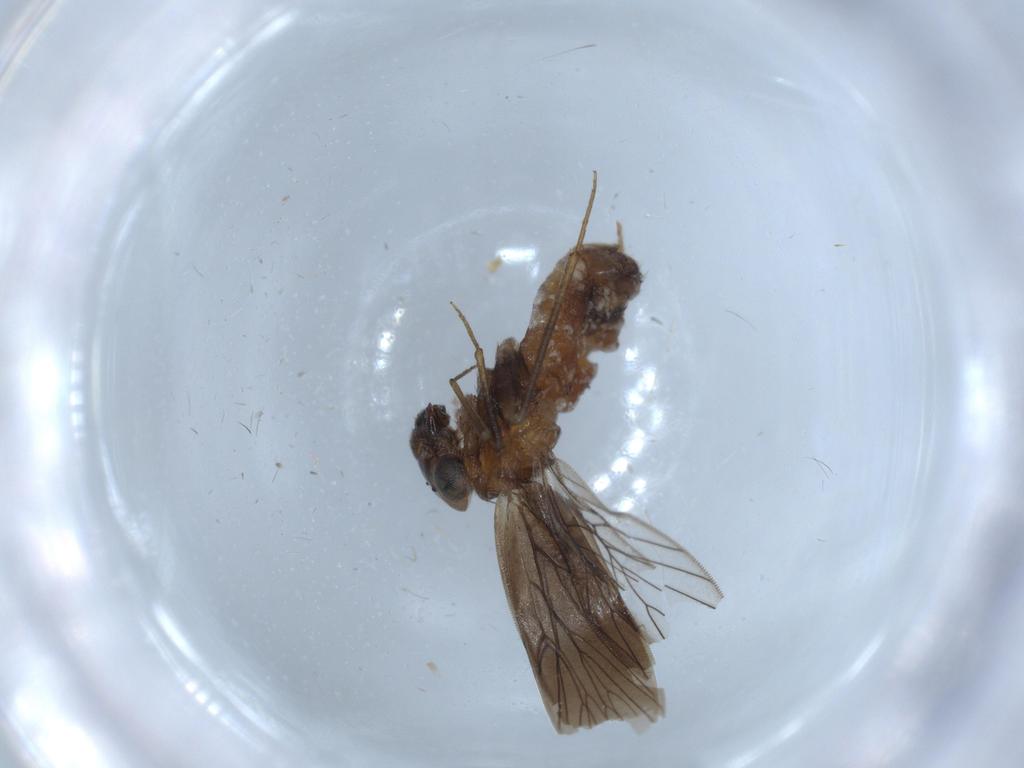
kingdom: Animalia
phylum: Arthropoda
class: Insecta
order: Psocodea
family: Lepidopsocidae
